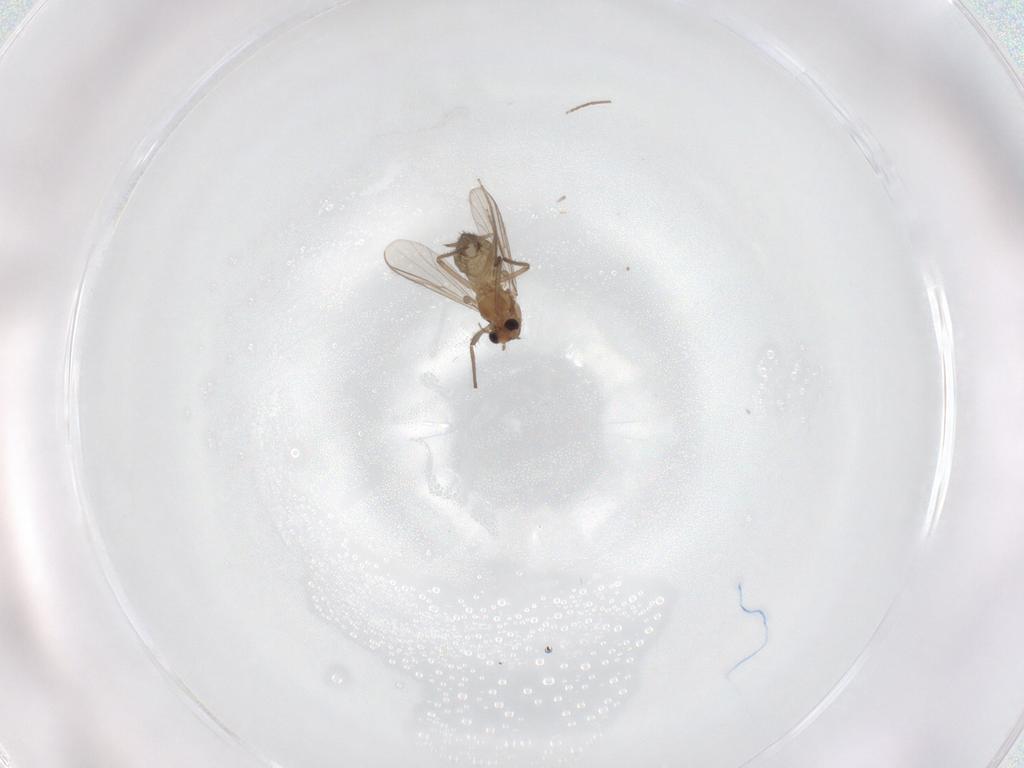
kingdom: Animalia
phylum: Arthropoda
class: Insecta
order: Diptera
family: Chironomidae
